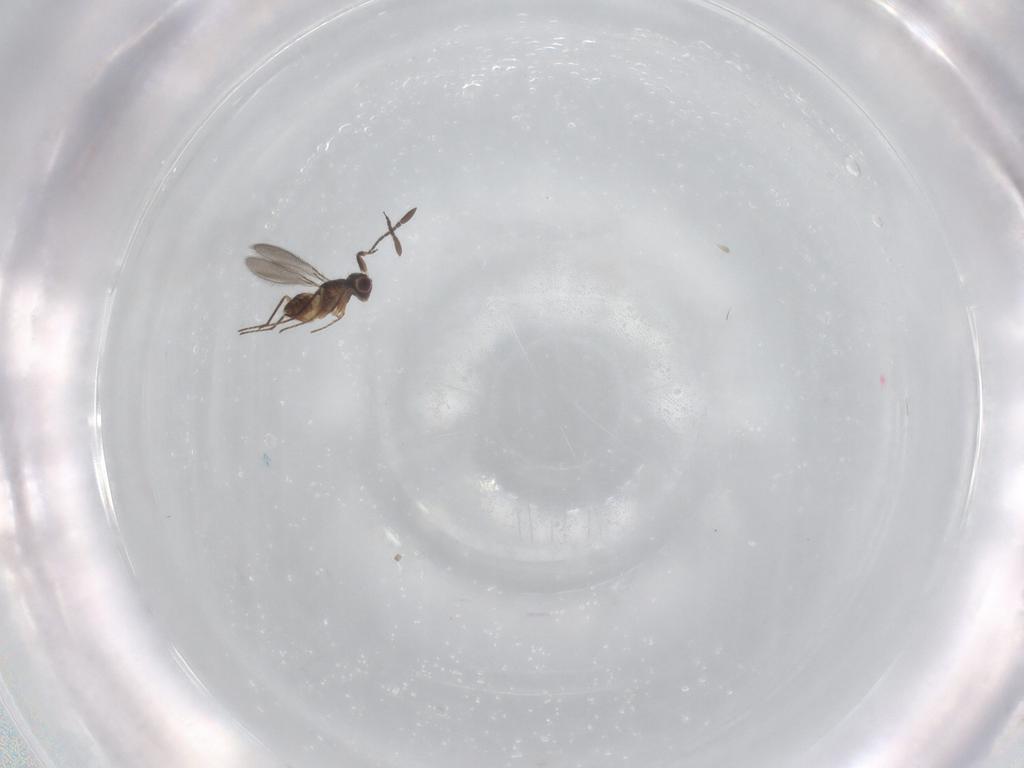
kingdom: Animalia
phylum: Arthropoda
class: Insecta
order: Hymenoptera
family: Mymaridae
